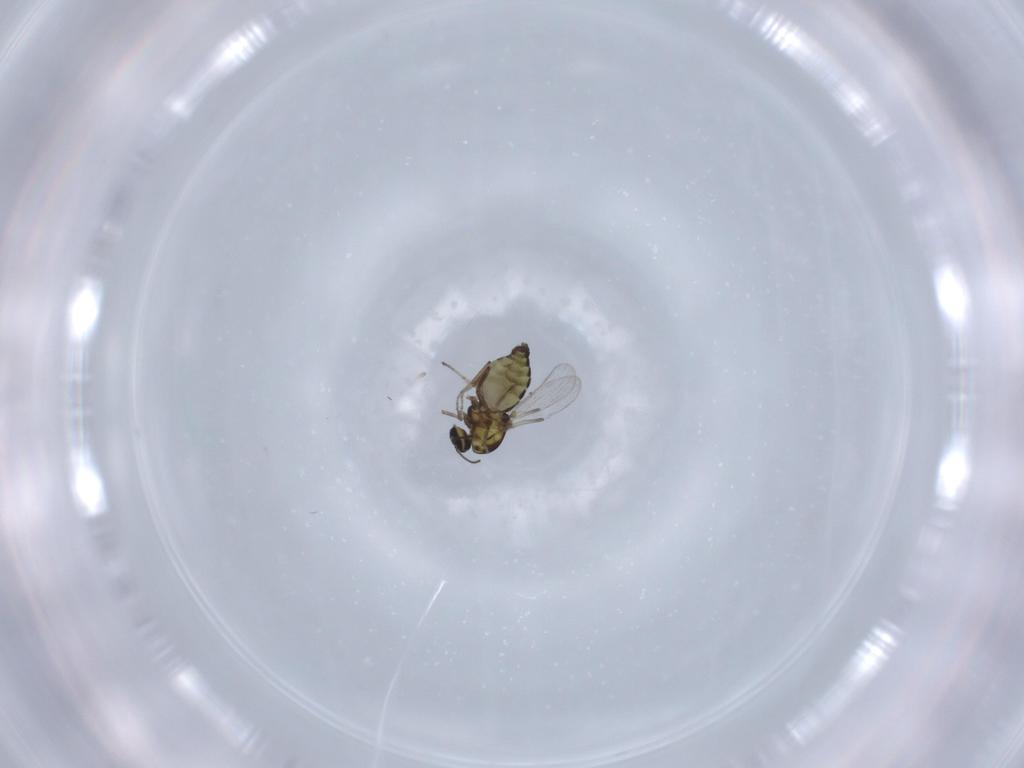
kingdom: Animalia
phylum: Arthropoda
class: Insecta
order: Diptera
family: Ceratopogonidae
